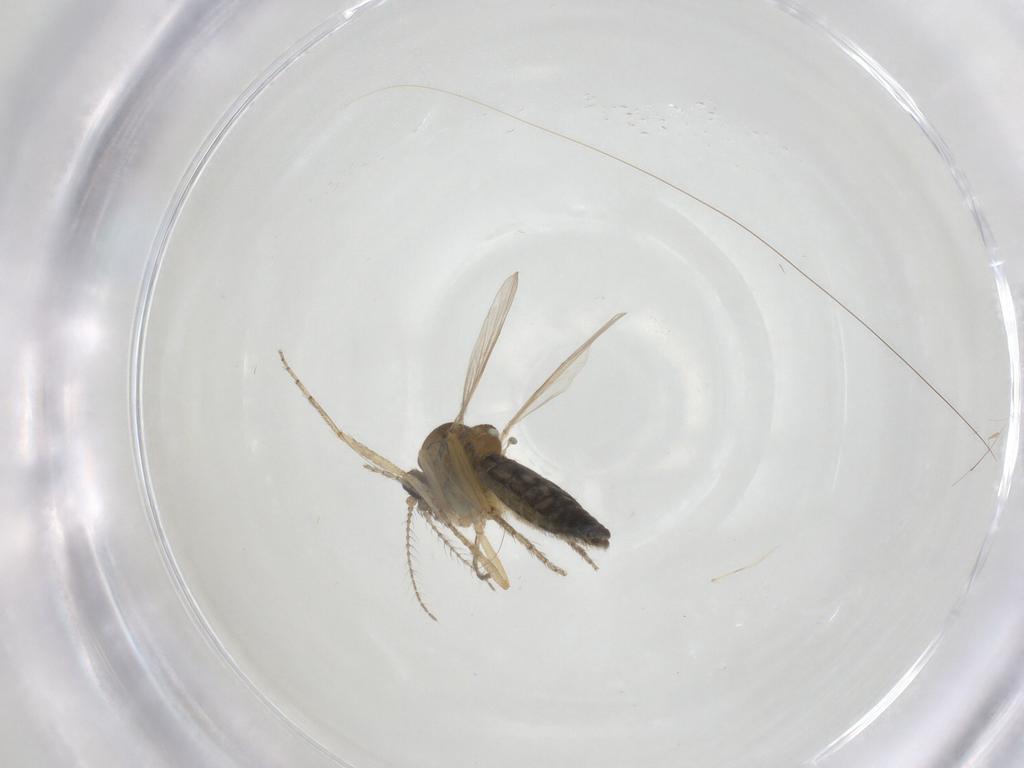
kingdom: Animalia
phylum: Arthropoda
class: Insecta
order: Diptera
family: Ceratopogonidae
